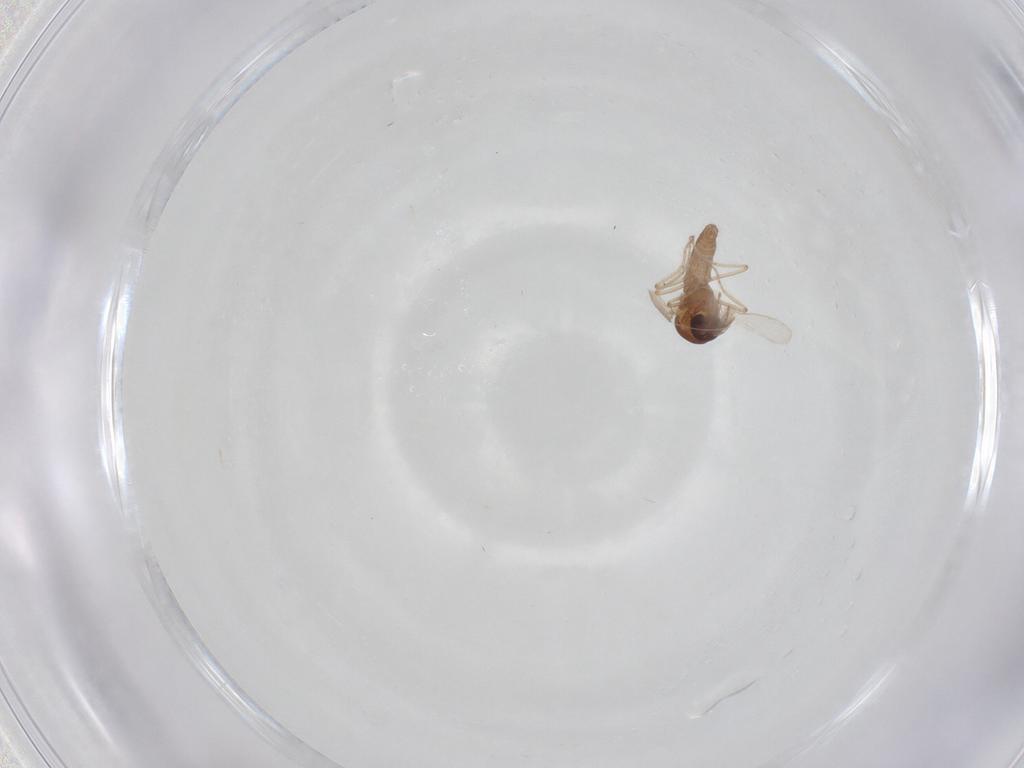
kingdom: Animalia
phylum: Arthropoda
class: Insecta
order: Diptera
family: Ceratopogonidae
